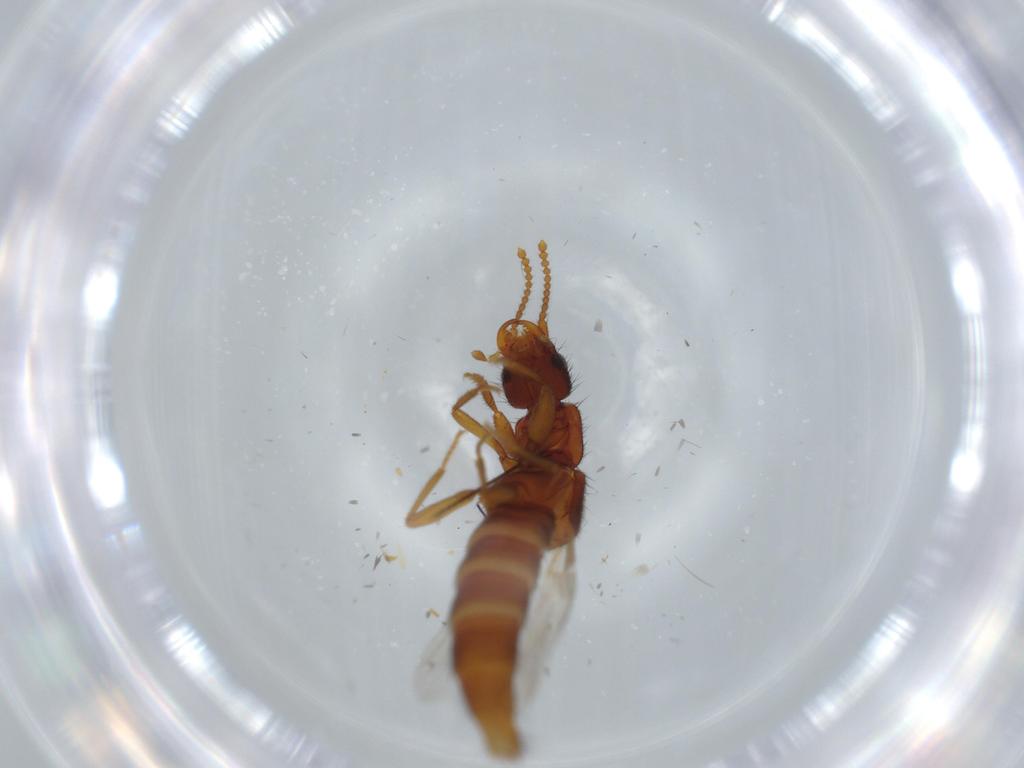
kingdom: Animalia
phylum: Arthropoda
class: Insecta
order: Coleoptera
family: Staphylinidae
